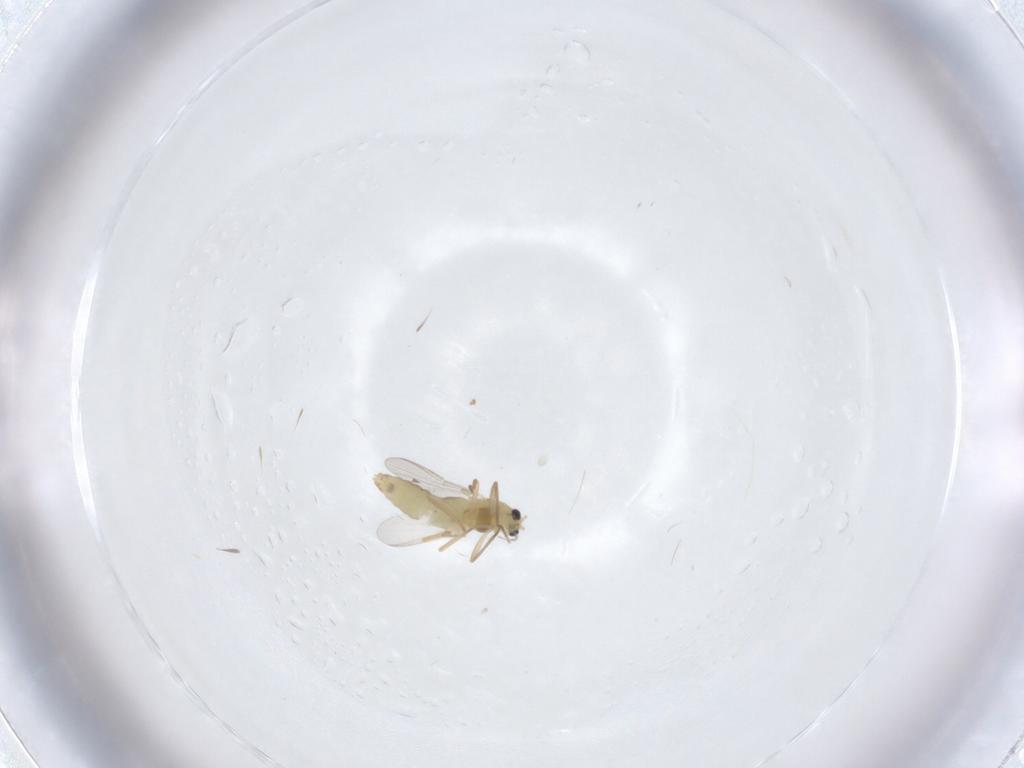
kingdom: Animalia
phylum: Arthropoda
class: Insecta
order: Diptera
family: Chironomidae
